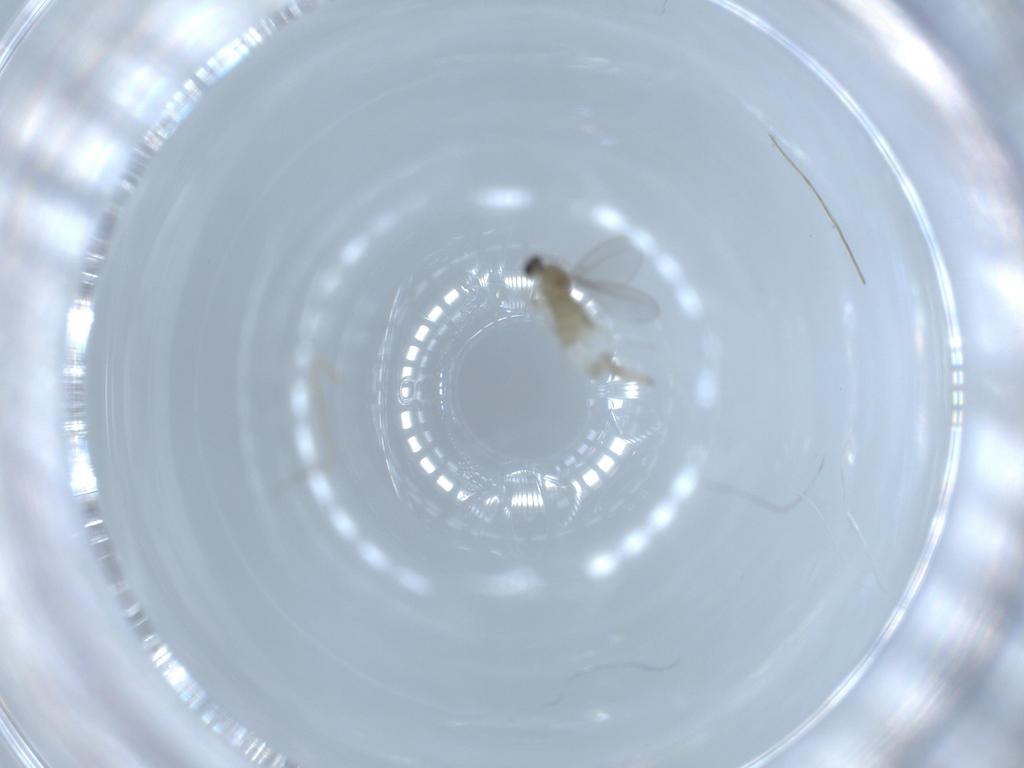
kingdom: Animalia
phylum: Arthropoda
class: Insecta
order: Diptera
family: Cecidomyiidae
